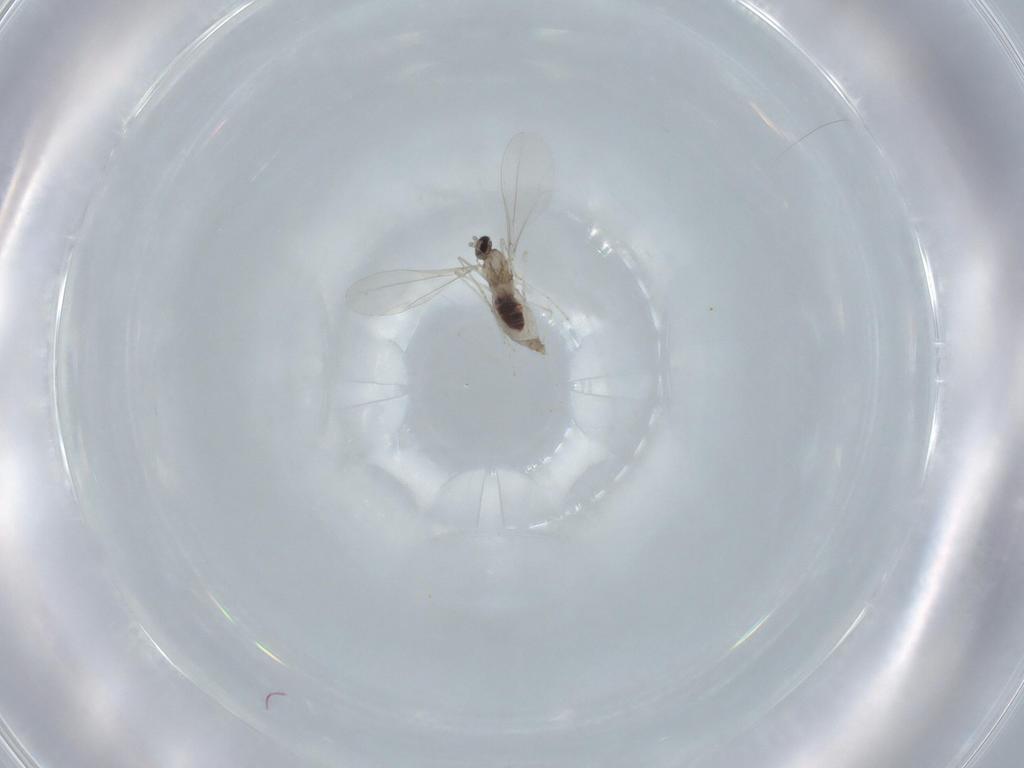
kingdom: Animalia
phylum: Arthropoda
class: Insecta
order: Diptera
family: Cecidomyiidae
